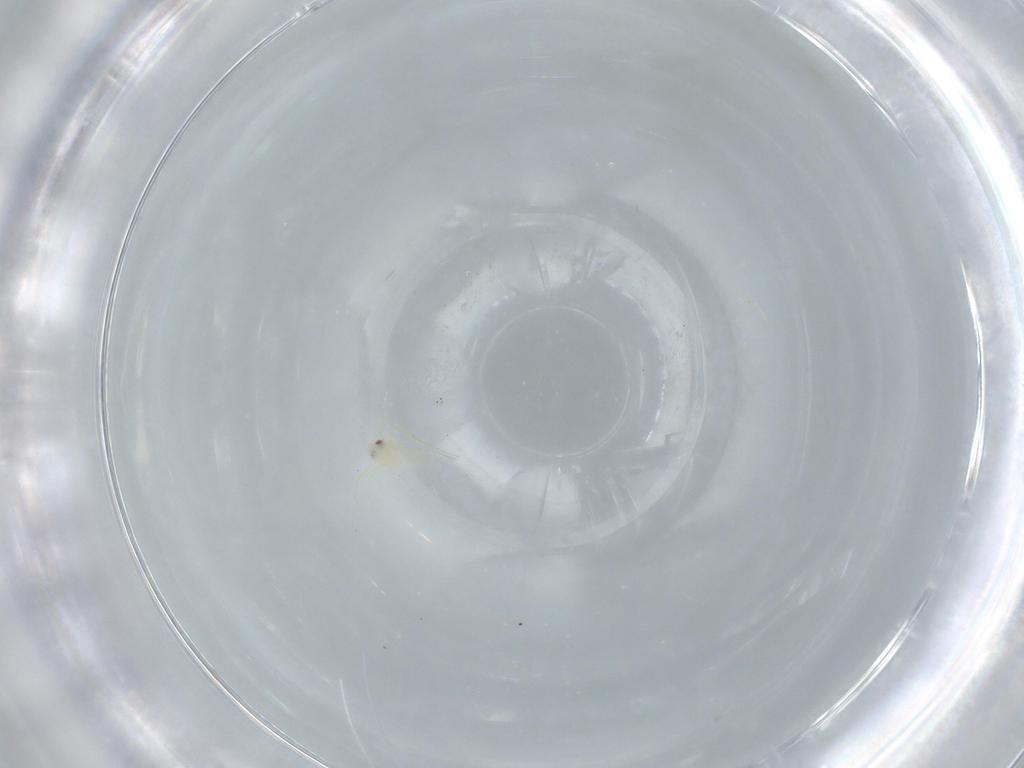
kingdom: Animalia
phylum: Arthropoda
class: Insecta
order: Hemiptera
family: Aleyrodidae
